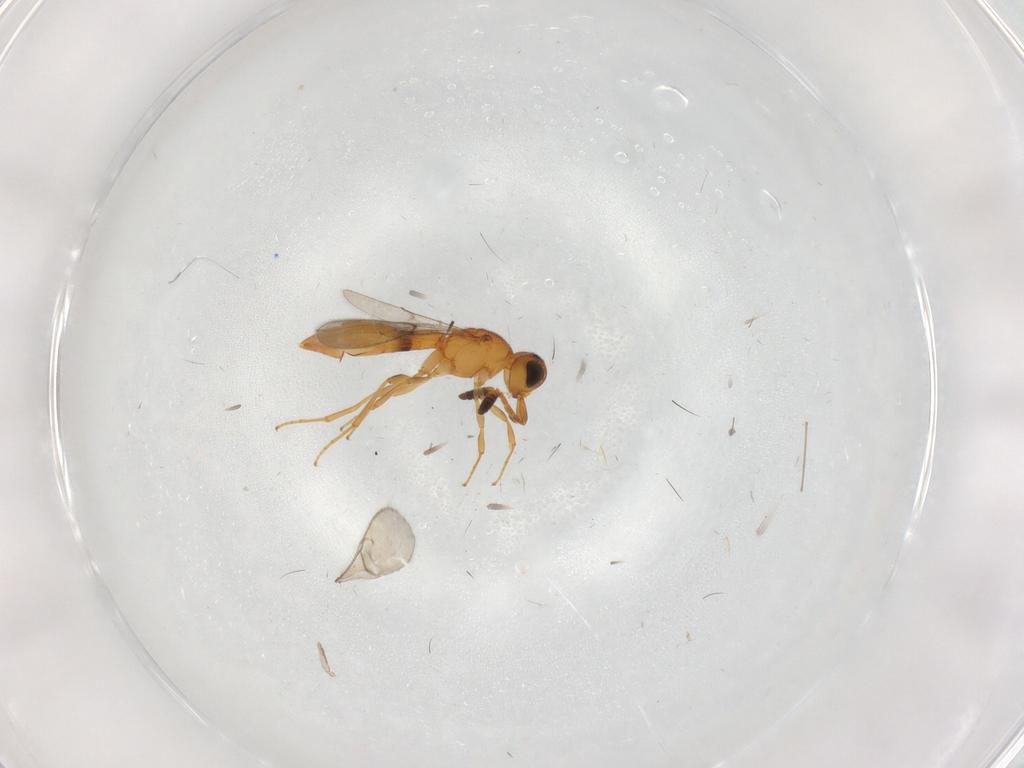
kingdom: Animalia
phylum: Arthropoda
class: Insecta
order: Hymenoptera
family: Scelionidae
